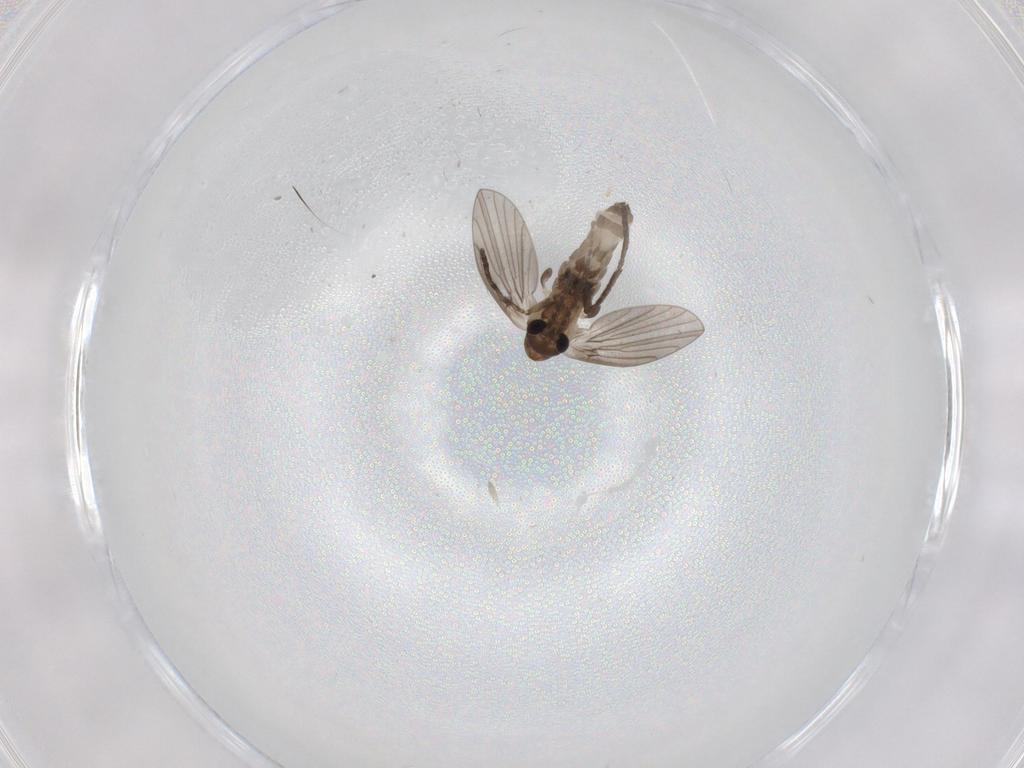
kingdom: Animalia
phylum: Arthropoda
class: Insecta
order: Diptera
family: Psychodidae
